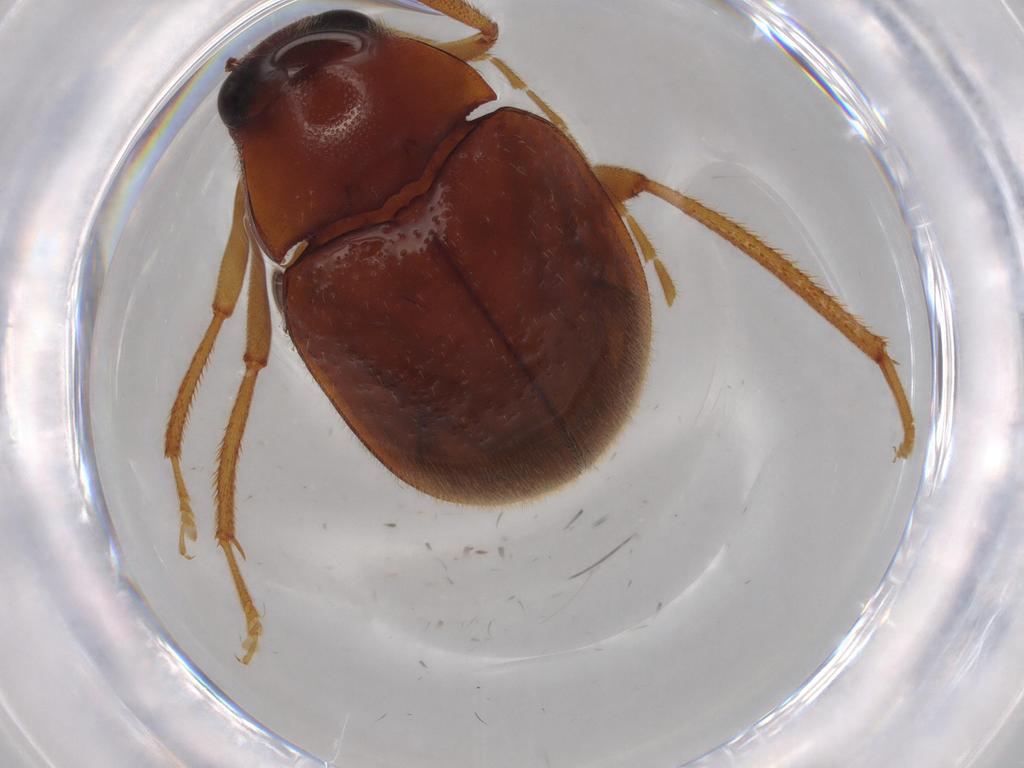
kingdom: Animalia
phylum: Arthropoda
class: Insecta
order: Coleoptera
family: Ptilodactylidae
